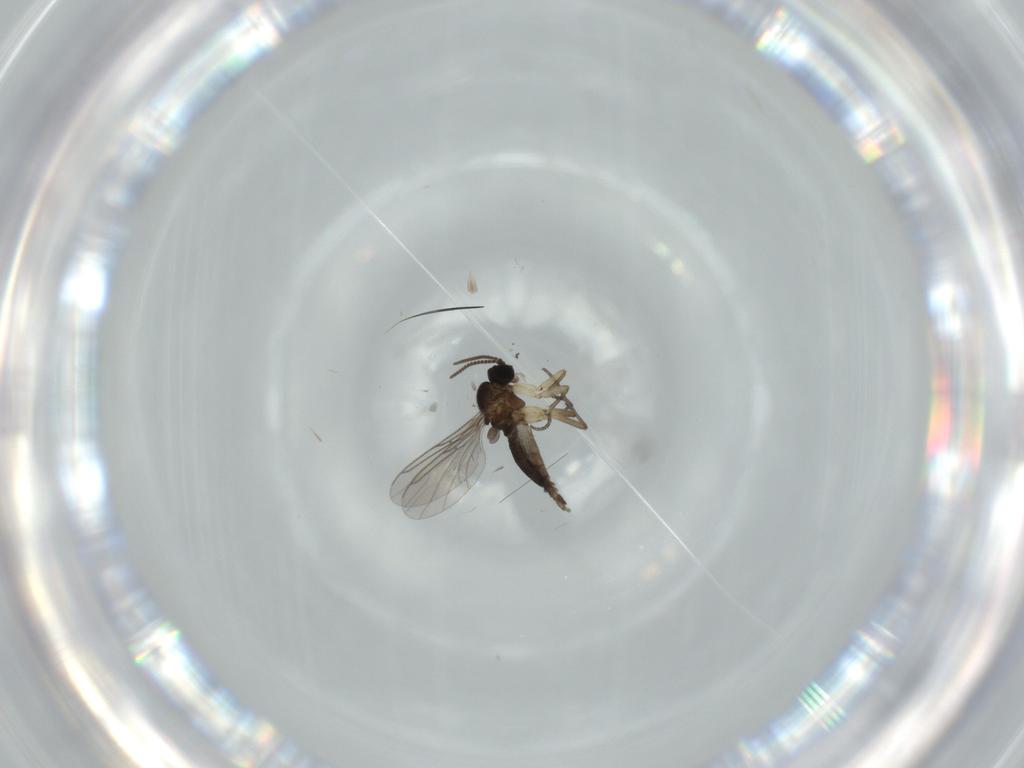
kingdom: Animalia
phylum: Arthropoda
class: Insecta
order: Diptera
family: Sciaridae
